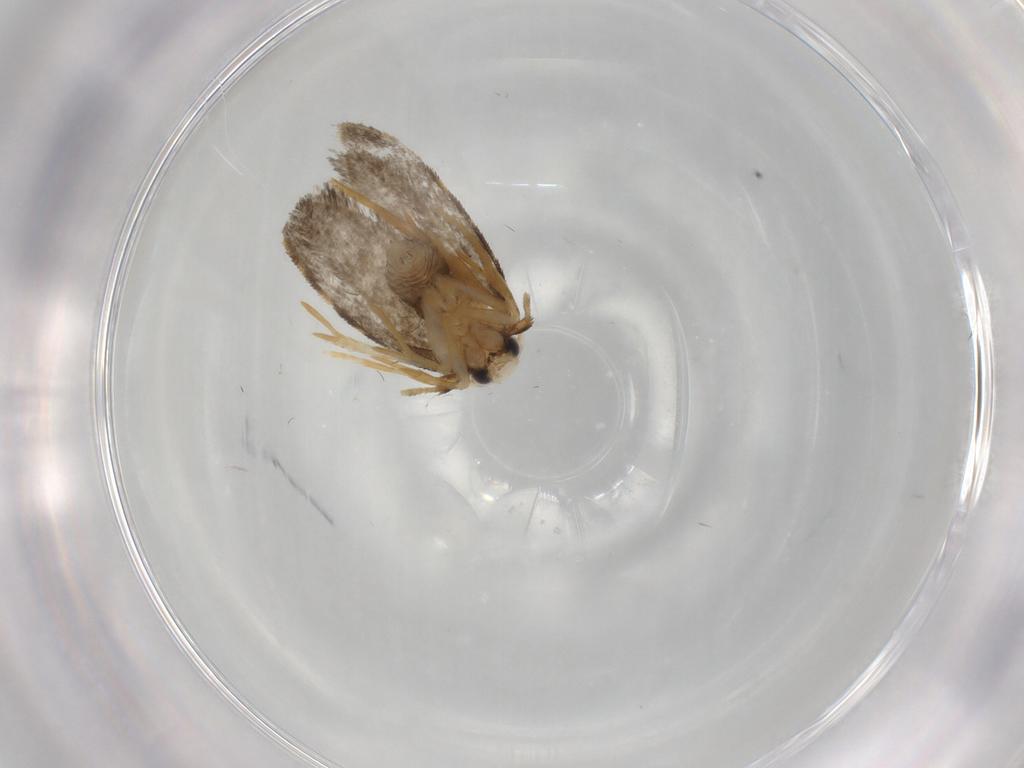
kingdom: Animalia
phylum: Arthropoda
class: Insecta
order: Lepidoptera
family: Psychidae
